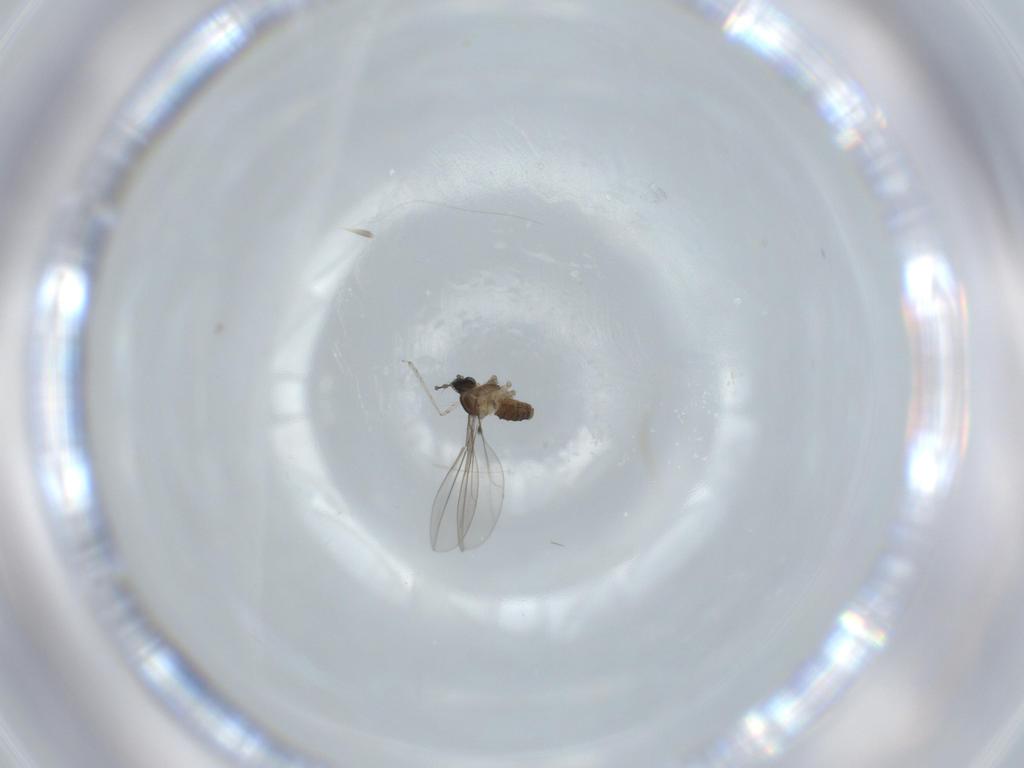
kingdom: Animalia
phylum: Arthropoda
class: Insecta
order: Diptera
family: Cecidomyiidae
